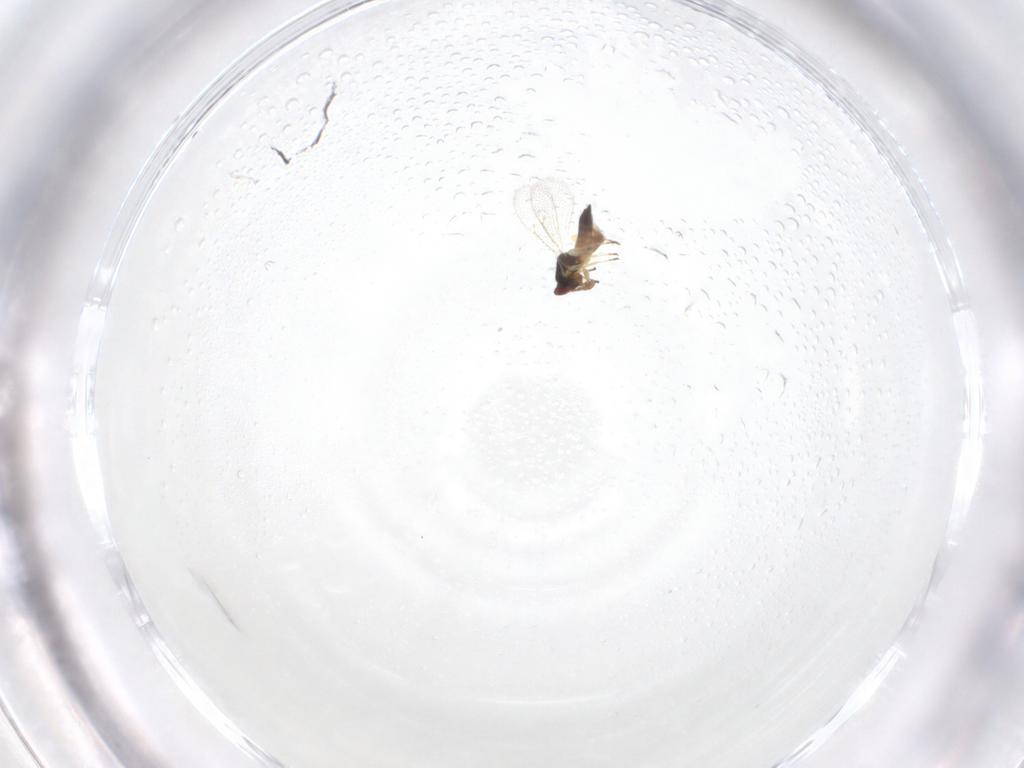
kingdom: Animalia
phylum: Arthropoda
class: Insecta
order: Hymenoptera
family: Eulophidae
